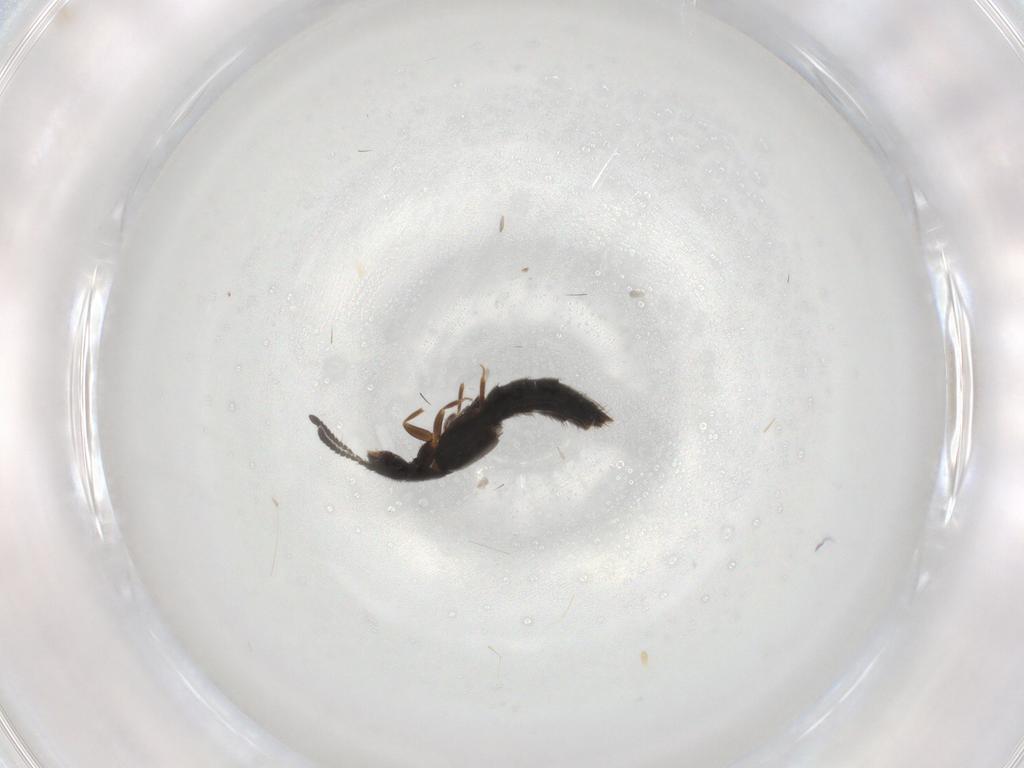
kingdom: Animalia
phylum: Arthropoda
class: Insecta
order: Coleoptera
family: Staphylinidae
